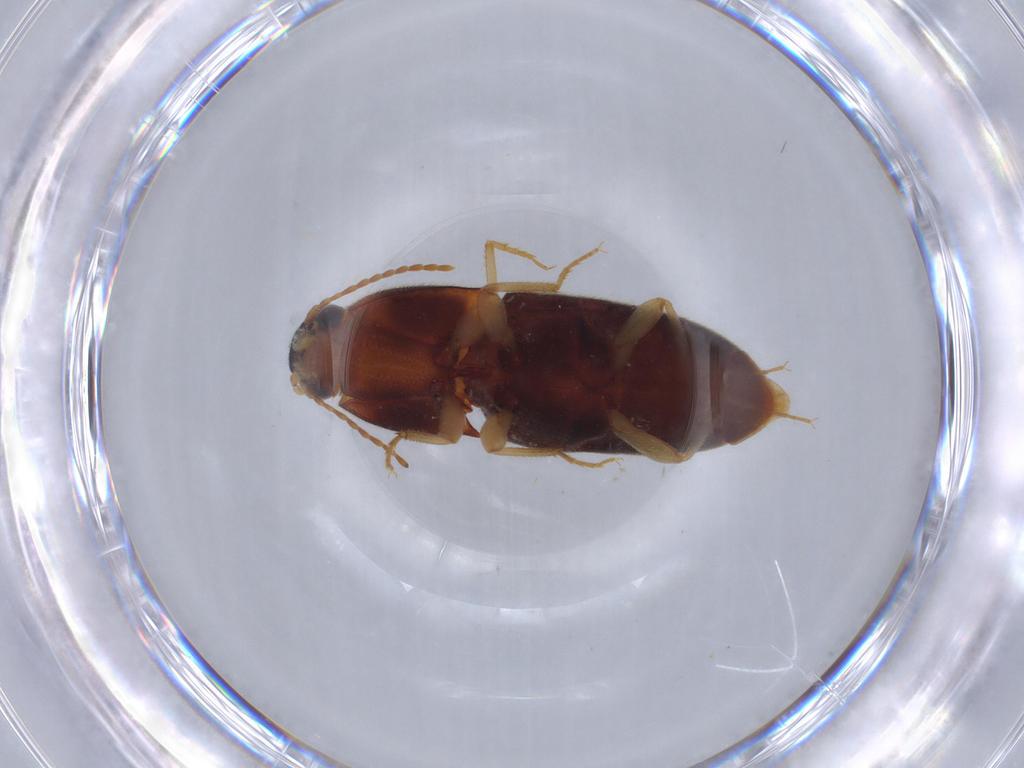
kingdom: Animalia
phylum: Arthropoda
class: Insecta
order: Coleoptera
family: Elateridae
